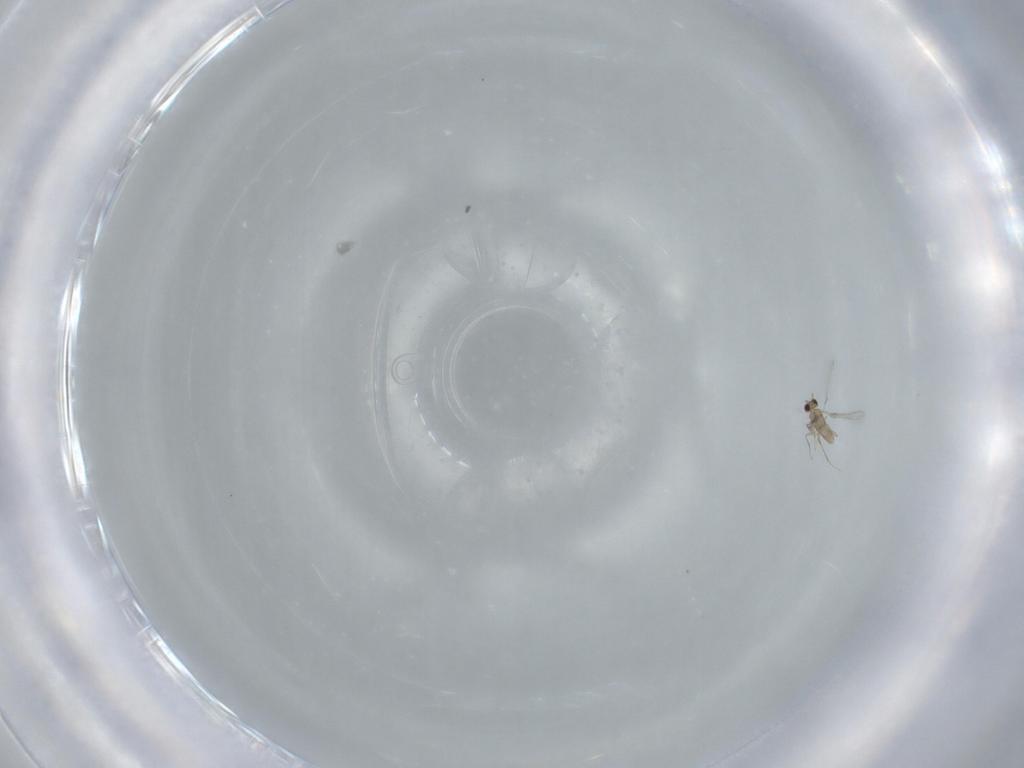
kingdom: Animalia
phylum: Arthropoda
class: Insecta
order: Hymenoptera
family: Mymaridae
